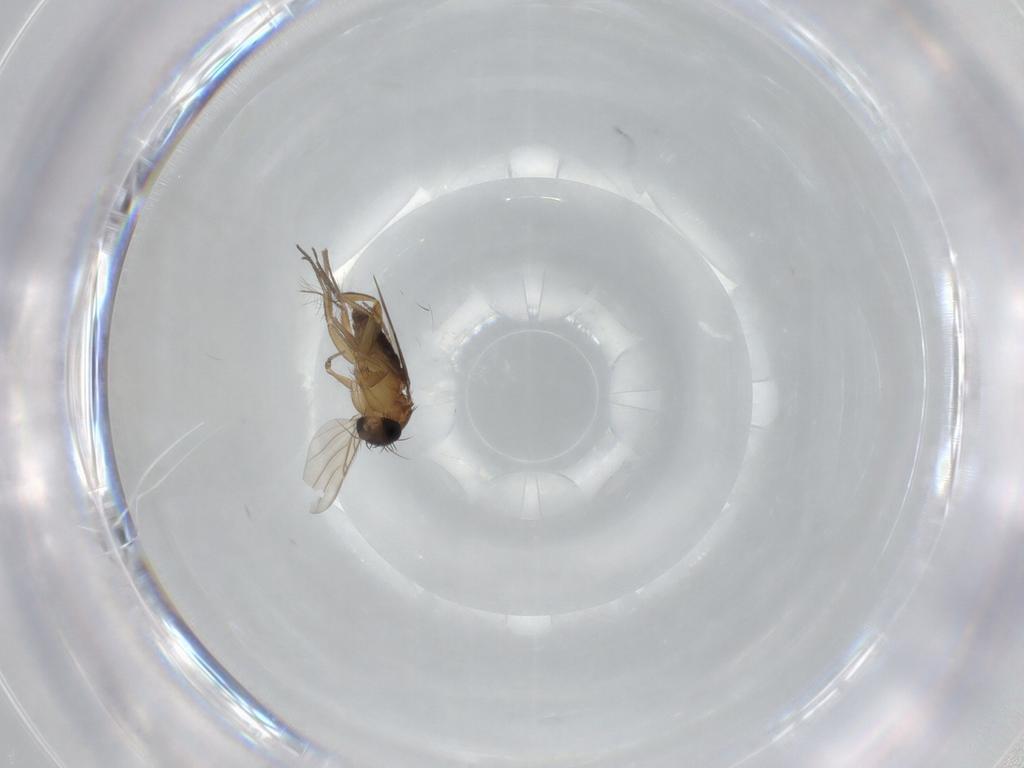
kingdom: Animalia
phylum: Arthropoda
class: Insecta
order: Diptera
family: Phoridae
